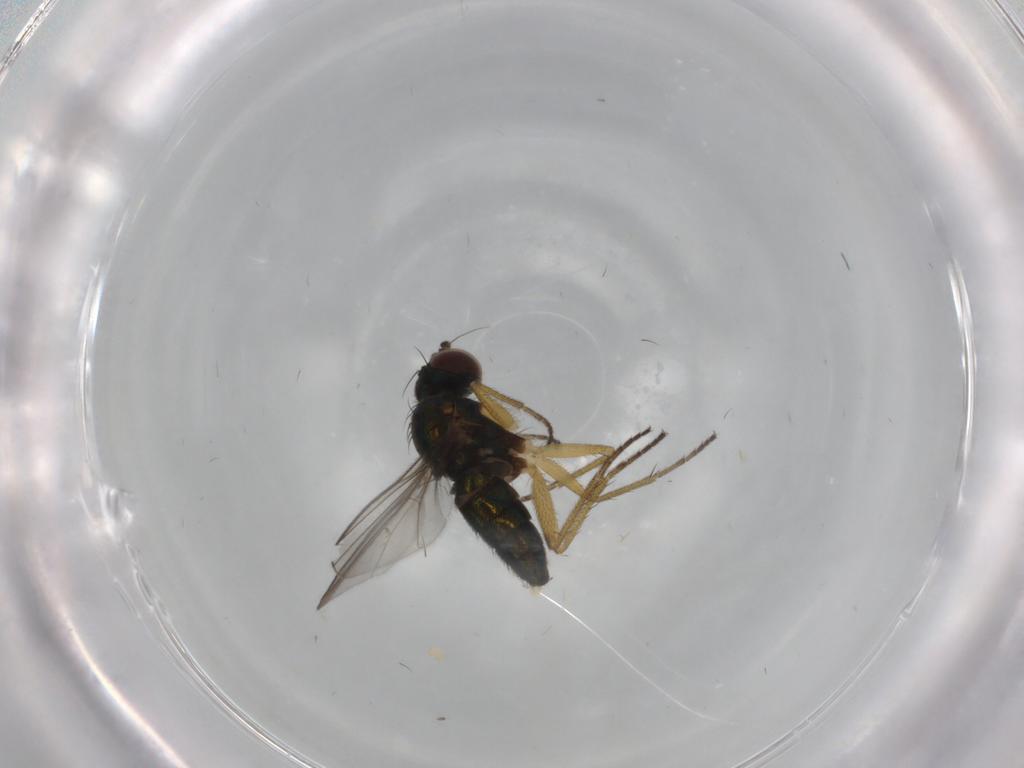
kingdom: Animalia
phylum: Arthropoda
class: Insecta
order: Diptera
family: Dolichopodidae
